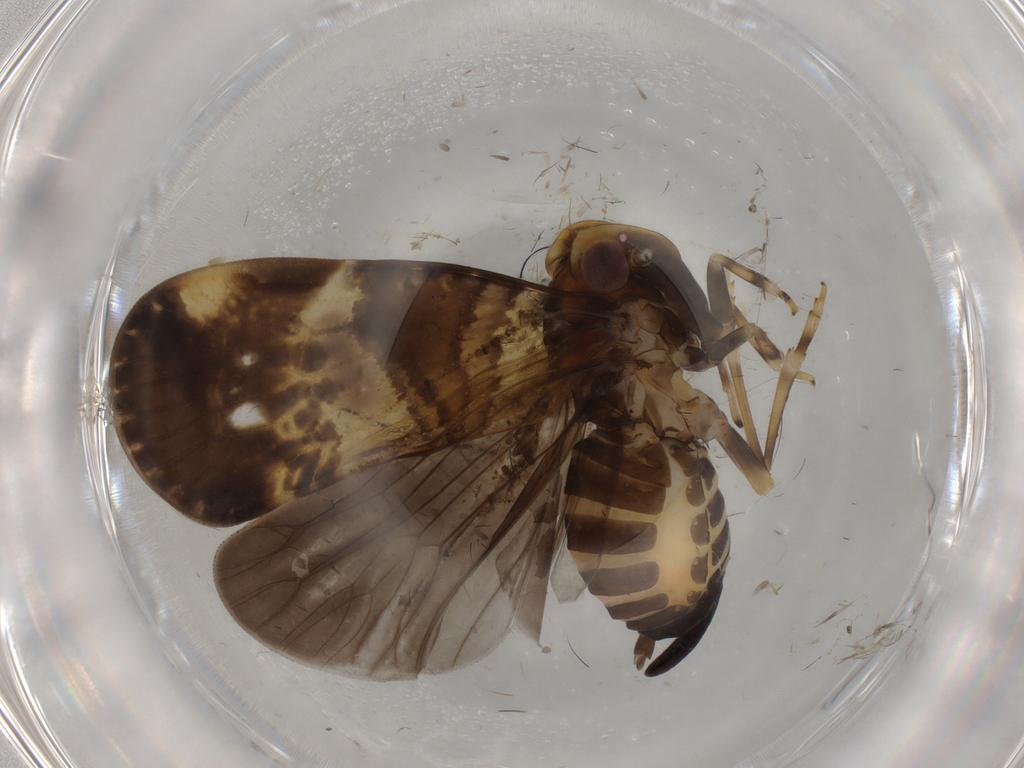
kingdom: Animalia
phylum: Arthropoda
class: Insecta
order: Hemiptera
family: Cixiidae
